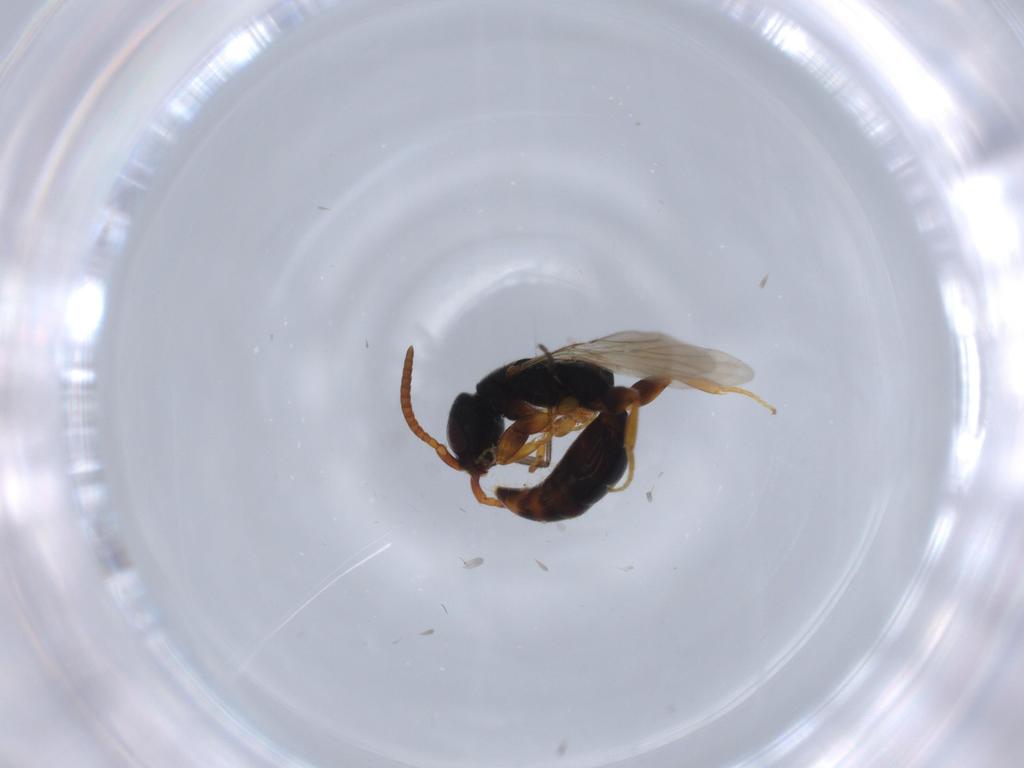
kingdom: Animalia
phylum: Arthropoda
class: Insecta
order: Hymenoptera
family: Bethylidae
